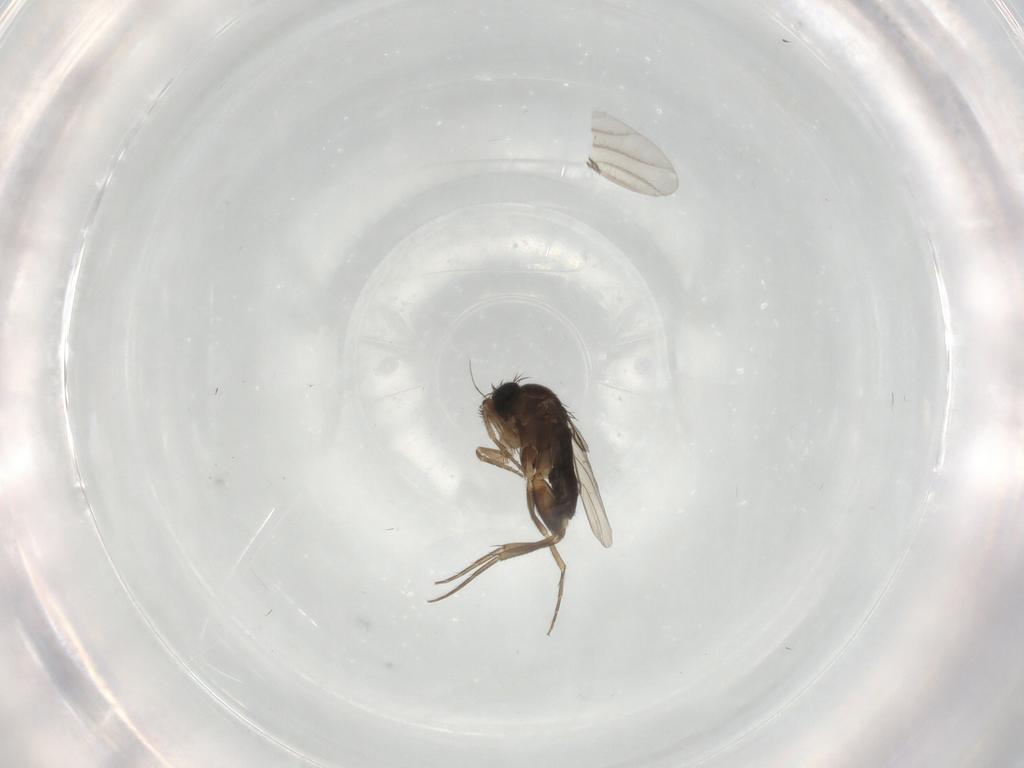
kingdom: Animalia
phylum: Arthropoda
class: Insecta
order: Diptera
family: Phoridae
